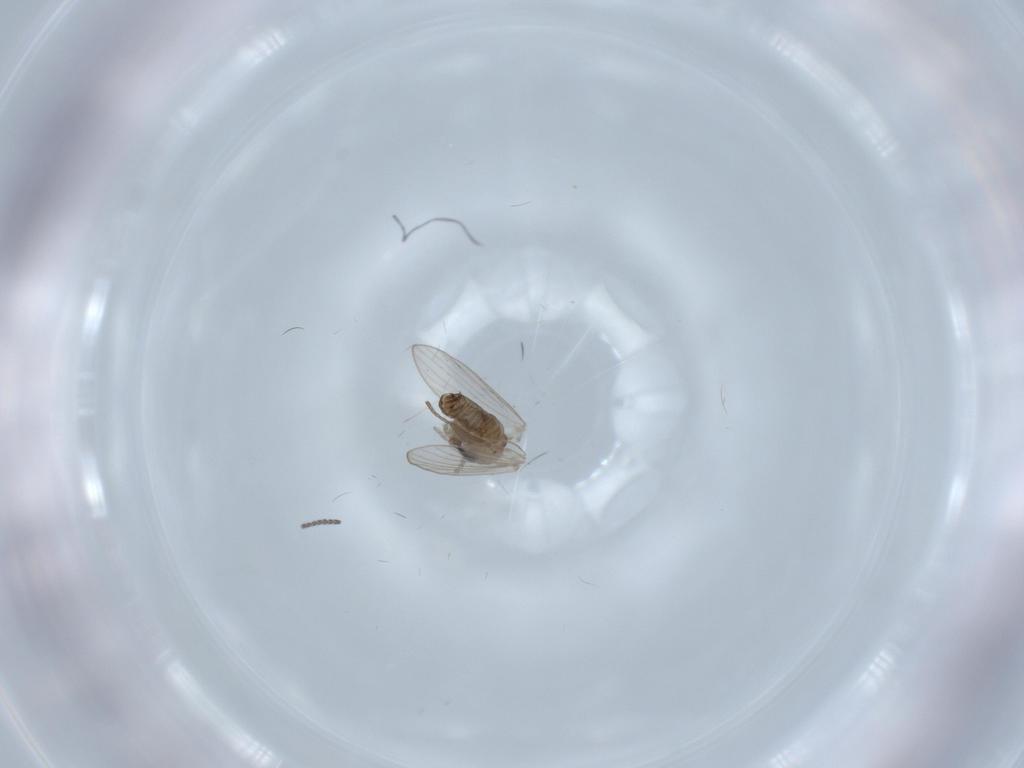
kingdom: Animalia
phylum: Arthropoda
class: Insecta
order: Diptera
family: Psychodidae
